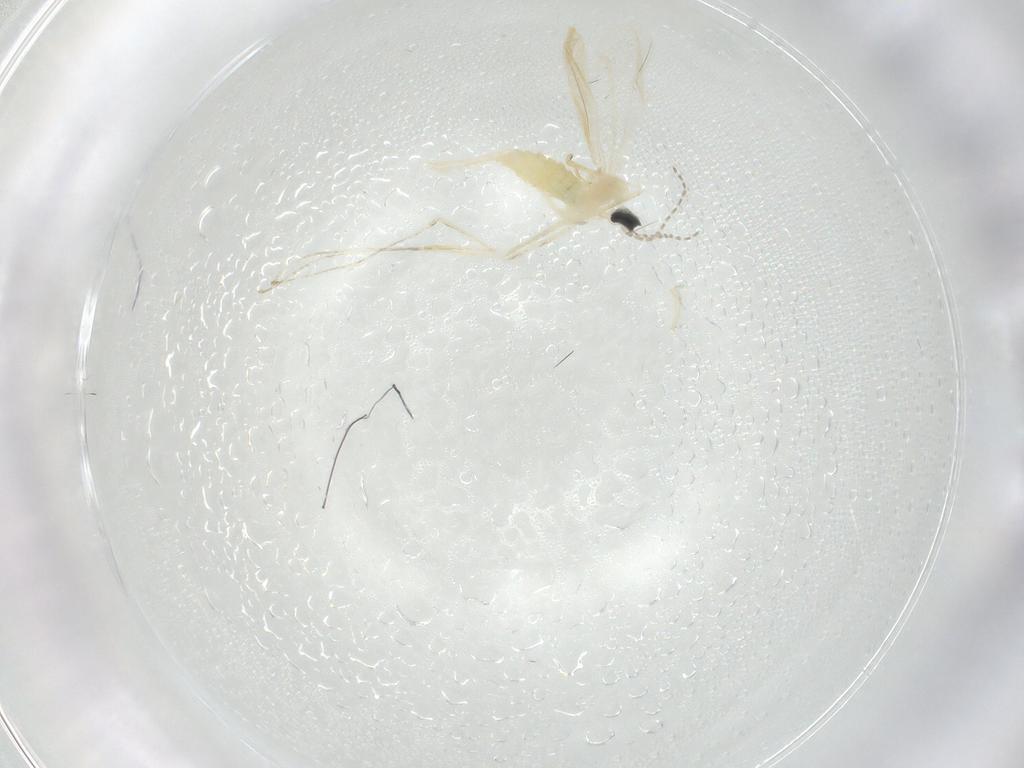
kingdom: Animalia
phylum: Arthropoda
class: Insecta
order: Diptera
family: Cecidomyiidae
